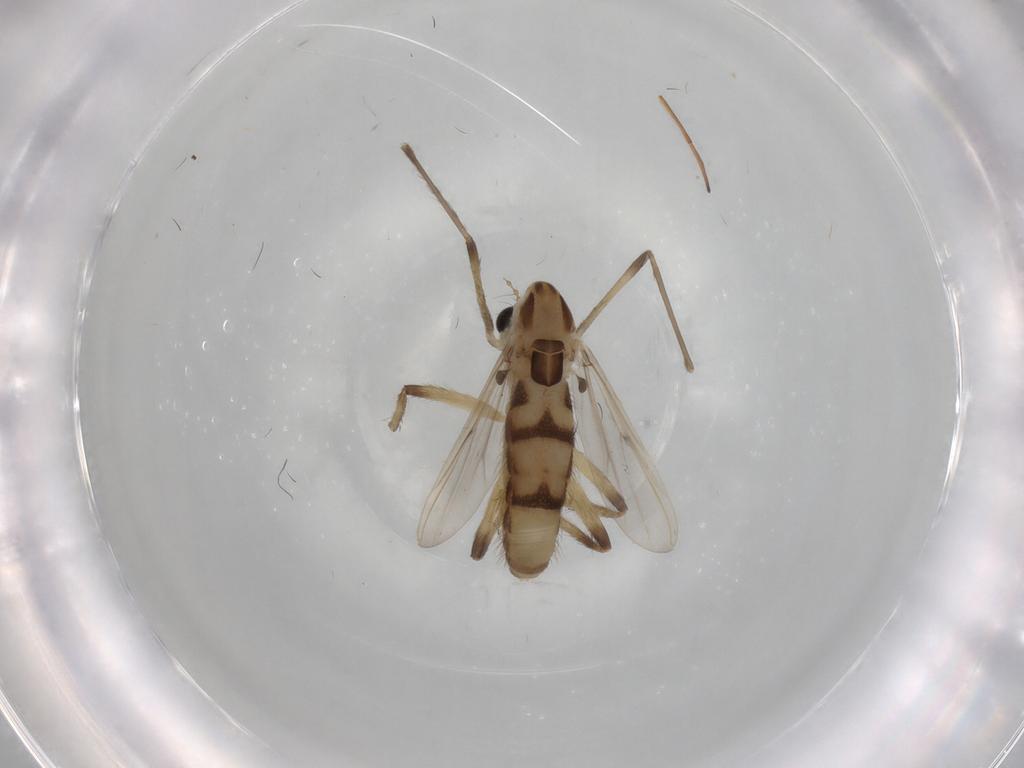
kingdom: Animalia
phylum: Arthropoda
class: Insecta
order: Diptera
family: Chironomidae
